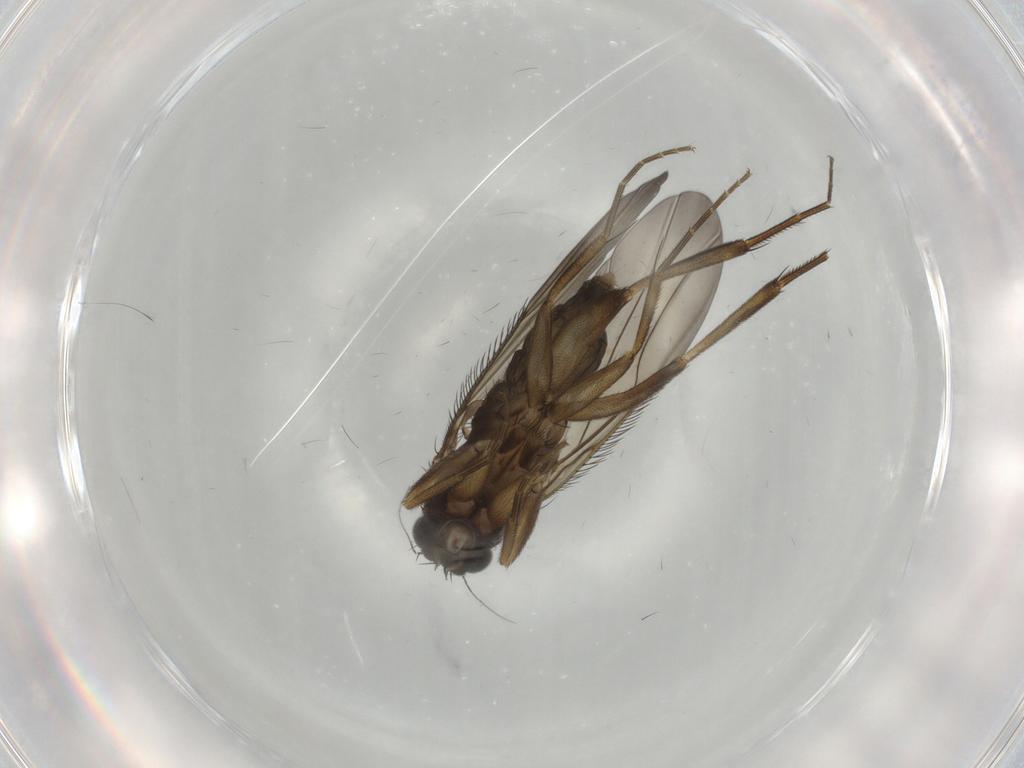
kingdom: Animalia
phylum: Arthropoda
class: Insecta
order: Diptera
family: Phoridae
